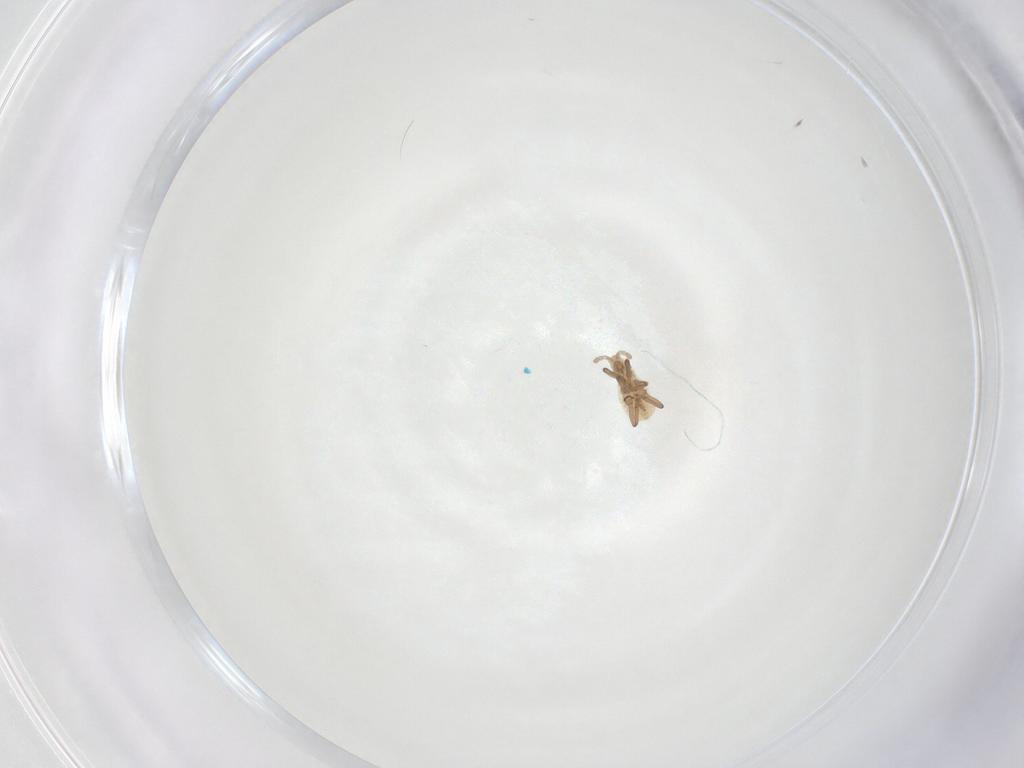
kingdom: Animalia
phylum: Arthropoda
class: Insecta
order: Hemiptera
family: Aphididae
